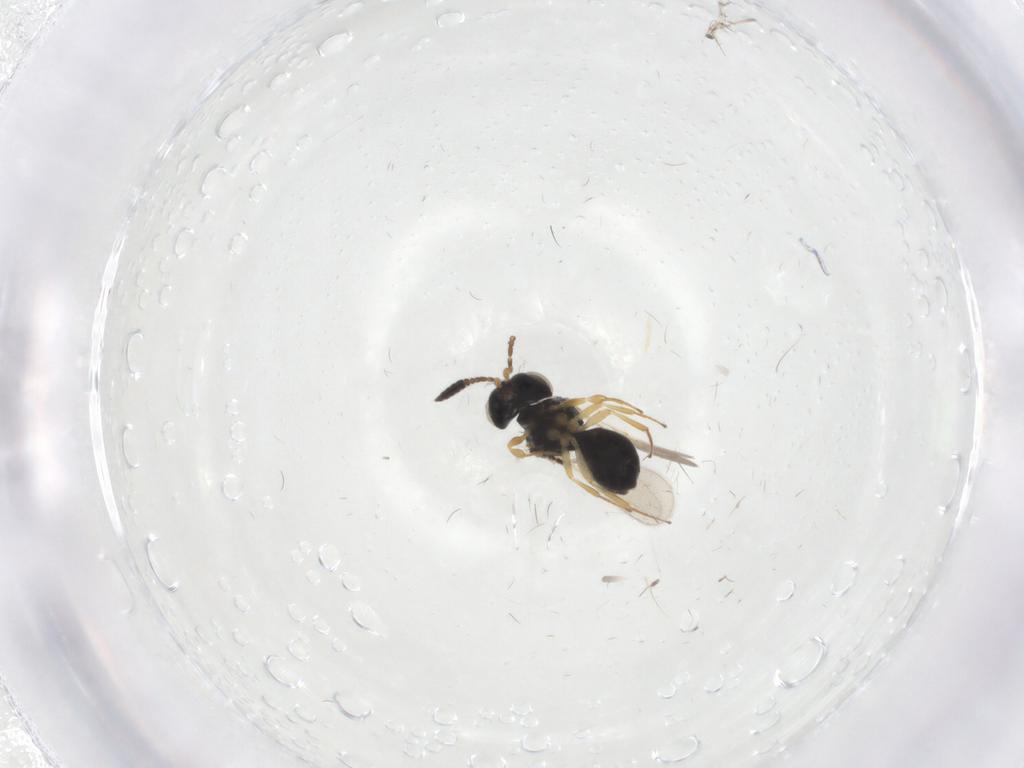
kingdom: Animalia
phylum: Arthropoda
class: Insecta
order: Hymenoptera
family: Scelionidae
